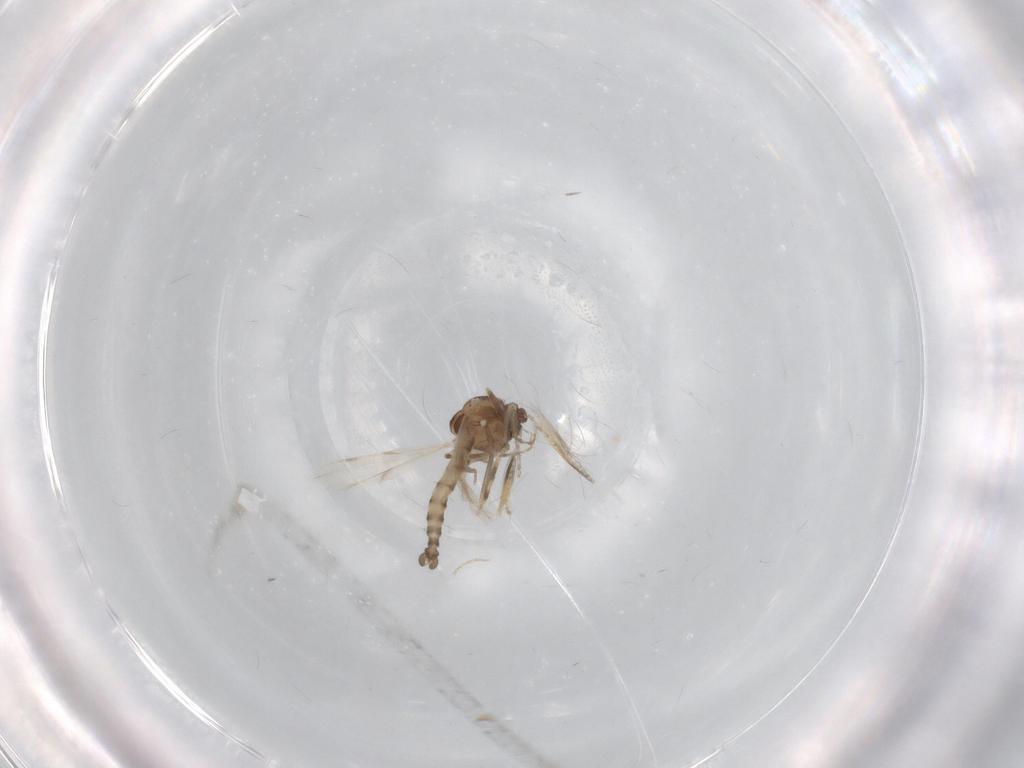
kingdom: Animalia
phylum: Arthropoda
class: Insecta
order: Diptera
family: Ceratopogonidae
